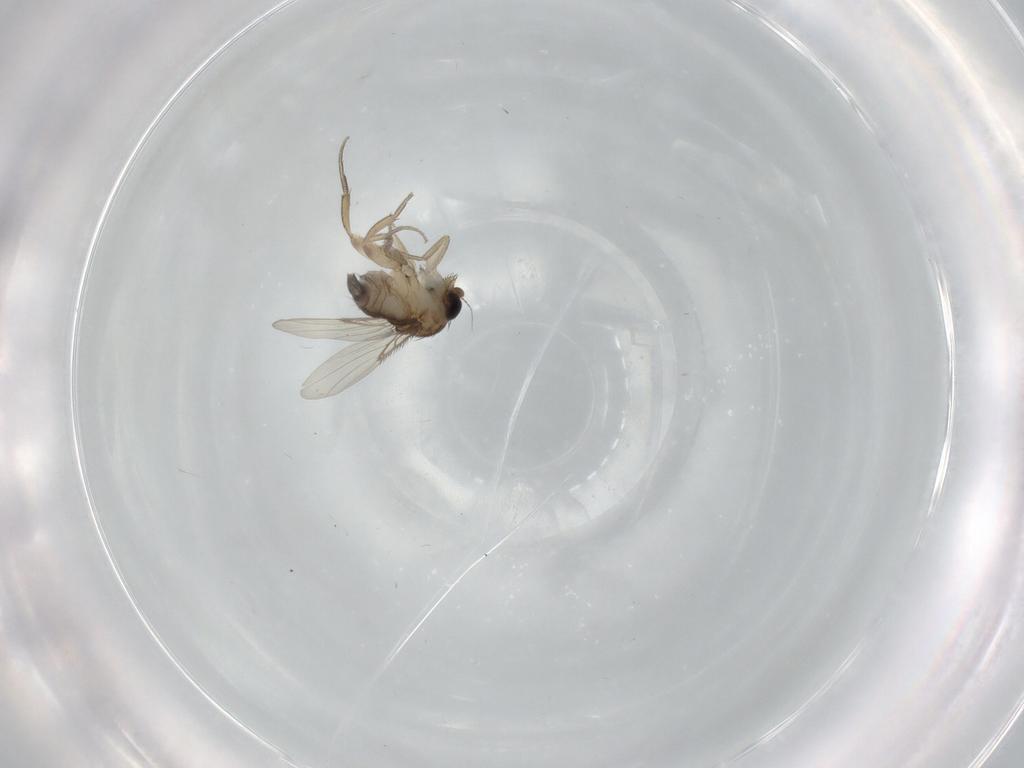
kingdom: Animalia
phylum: Arthropoda
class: Insecta
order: Diptera
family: Phoridae
